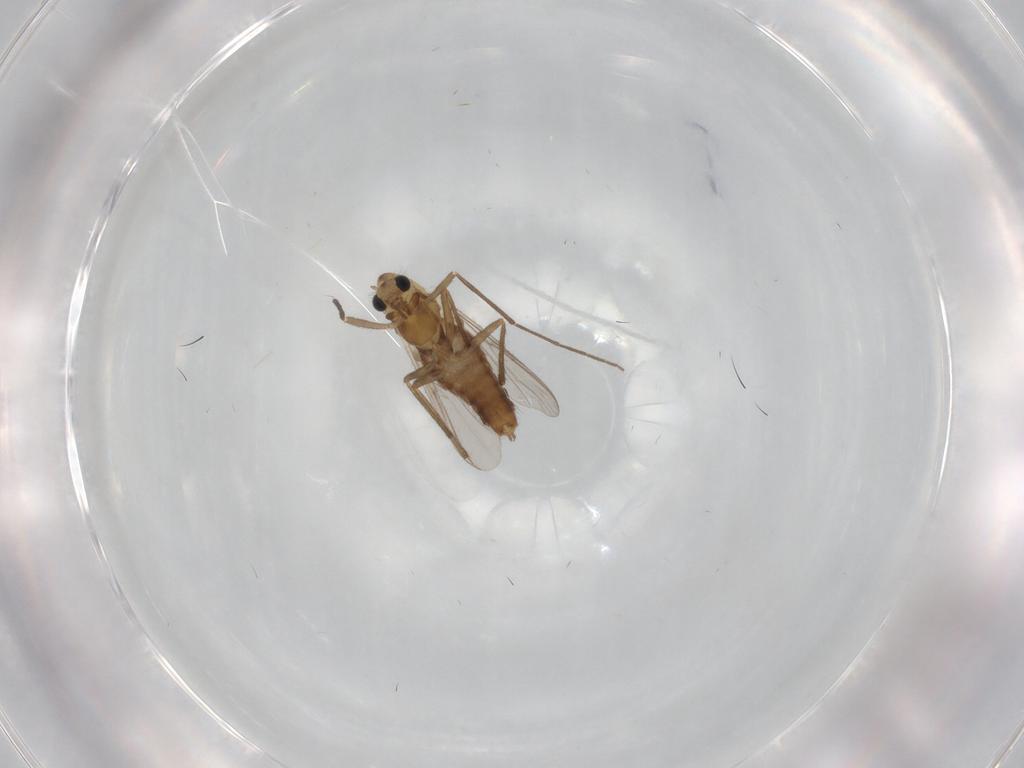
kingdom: Animalia
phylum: Arthropoda
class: Insecta
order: Diptera
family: Chironomidae
